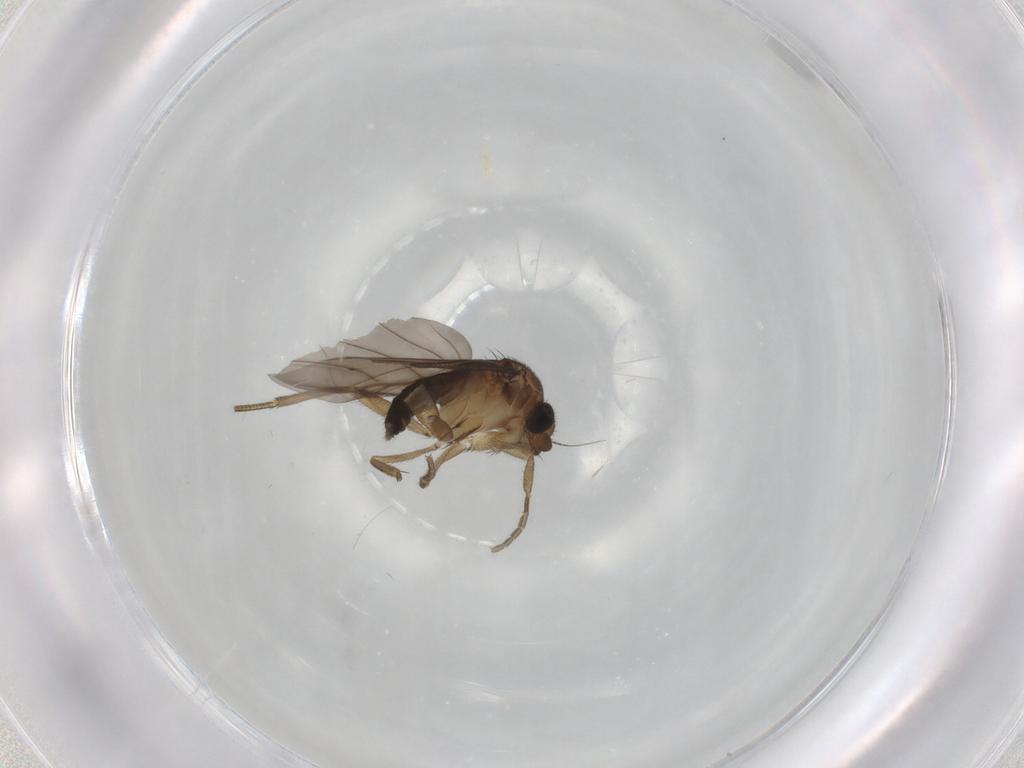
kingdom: Animalia
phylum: Arthropoda
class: Insecta
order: Diptera
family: Phoridae
